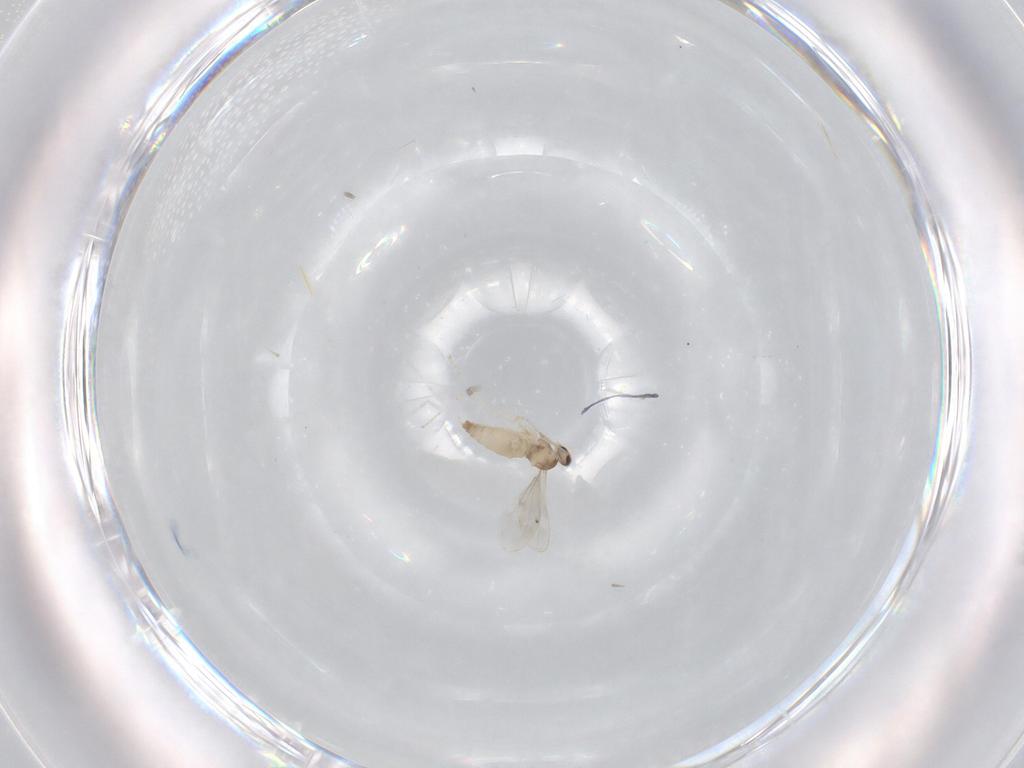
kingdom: Animalia
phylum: Arthropoda
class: Insecta
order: Diptera
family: Cecidomyiidae
